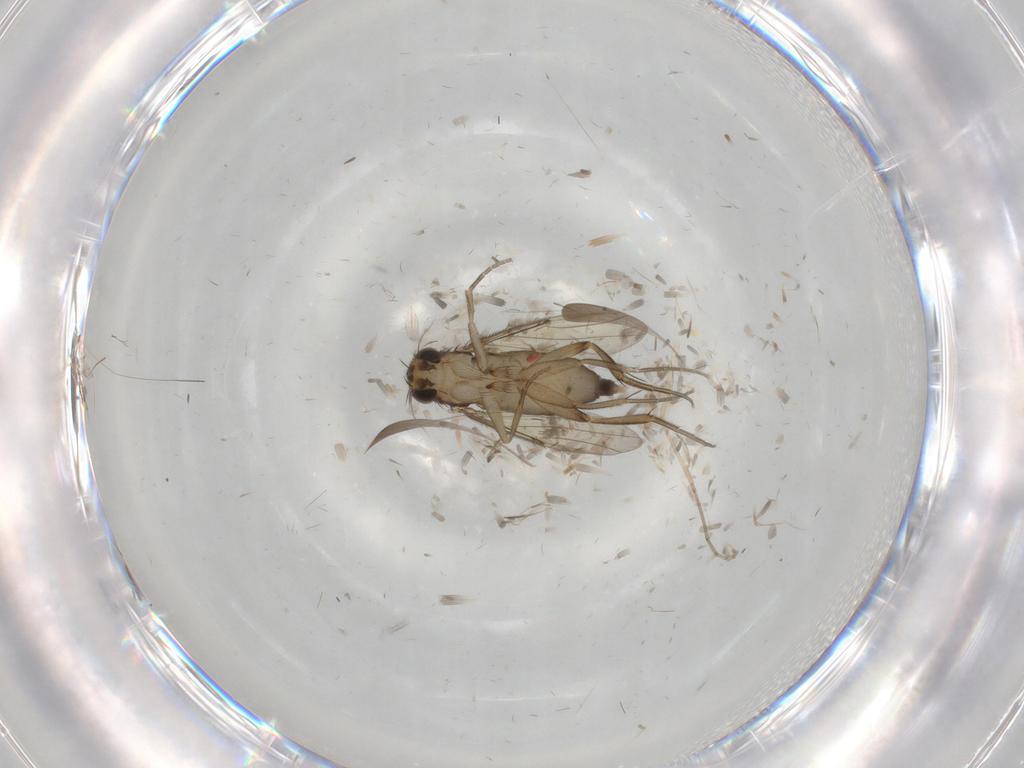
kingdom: Animalia
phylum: Arthropoda
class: Insecta
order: Diptera
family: Phoridae
